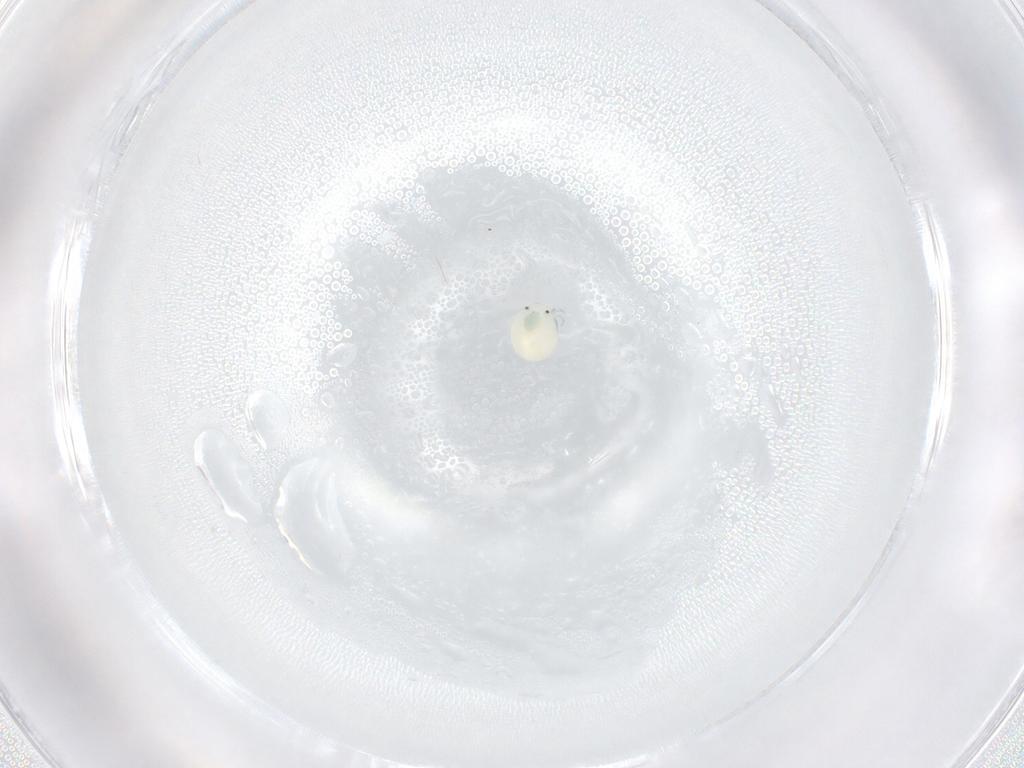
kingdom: Animalia
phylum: Arthropoda
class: Arachnida
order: Trombidiformes
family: Arrenuridae
